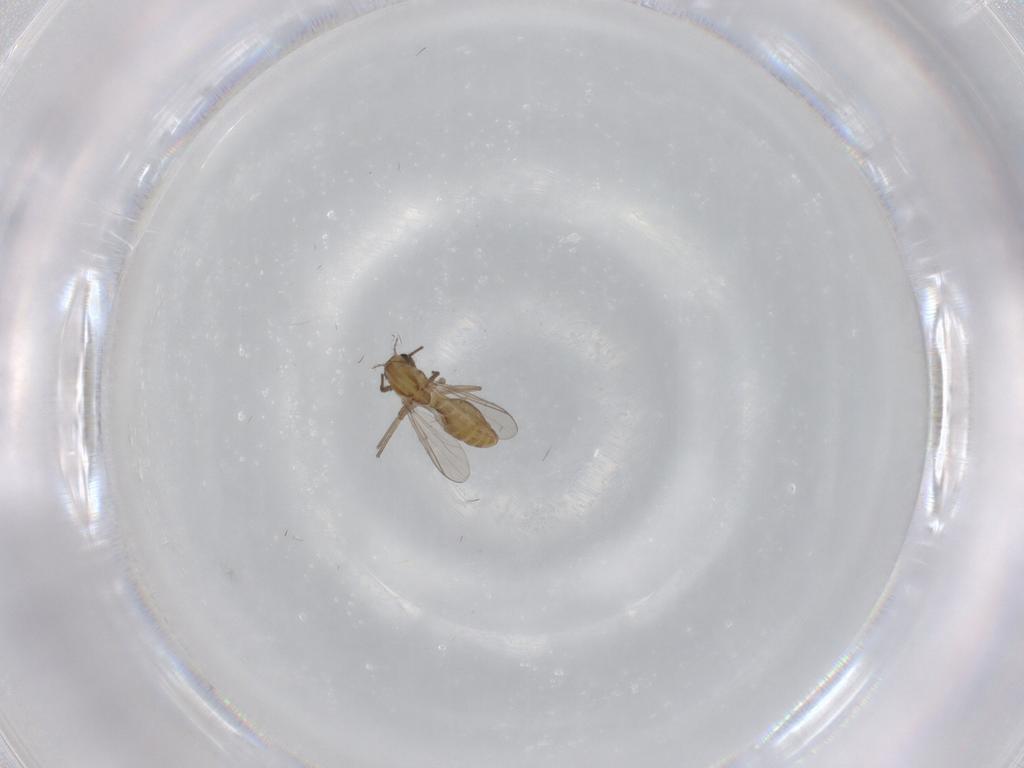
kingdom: Animalia
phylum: Arthropoda
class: Insecta
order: Diptera
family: Chironomidae
